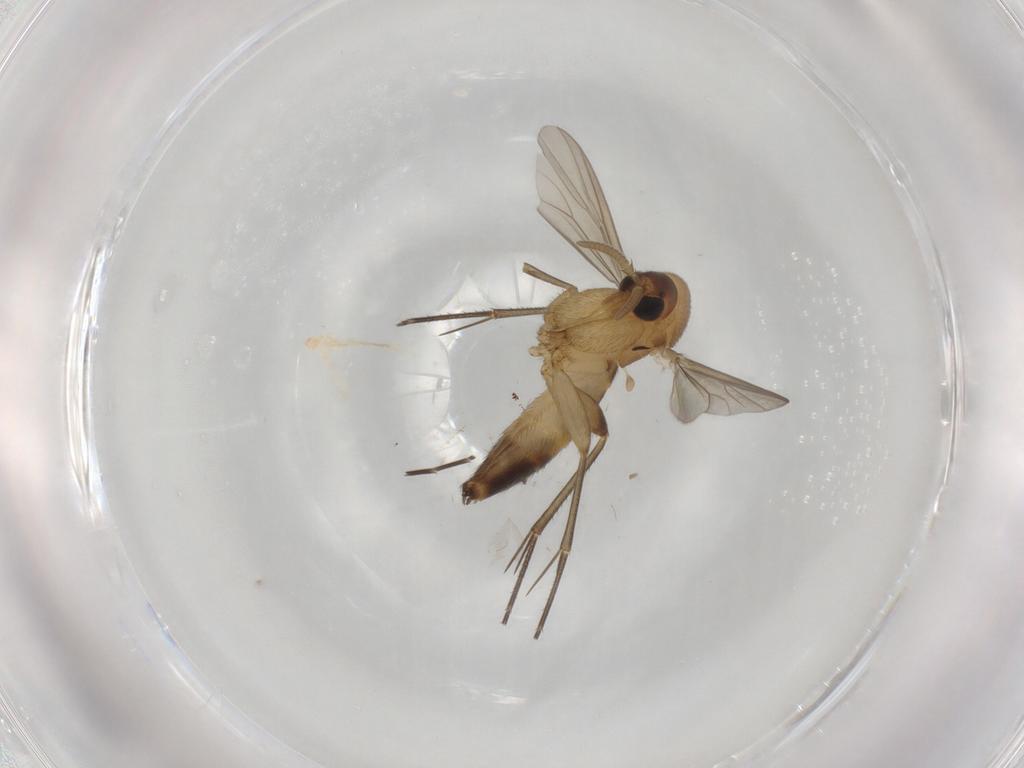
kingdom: Animalia
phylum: Arthropoda
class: Insecta
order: Diptera
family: Mycetophilidae
